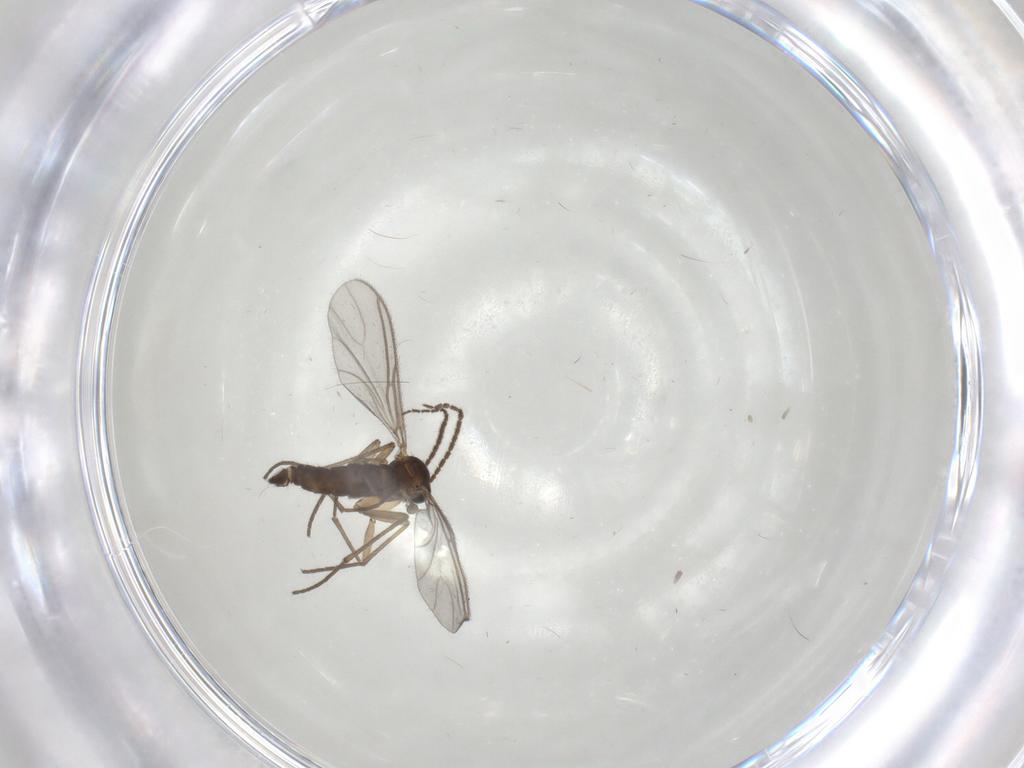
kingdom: Animalia
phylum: Arthropoda
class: Insecta
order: Diptera
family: Sciaridae
